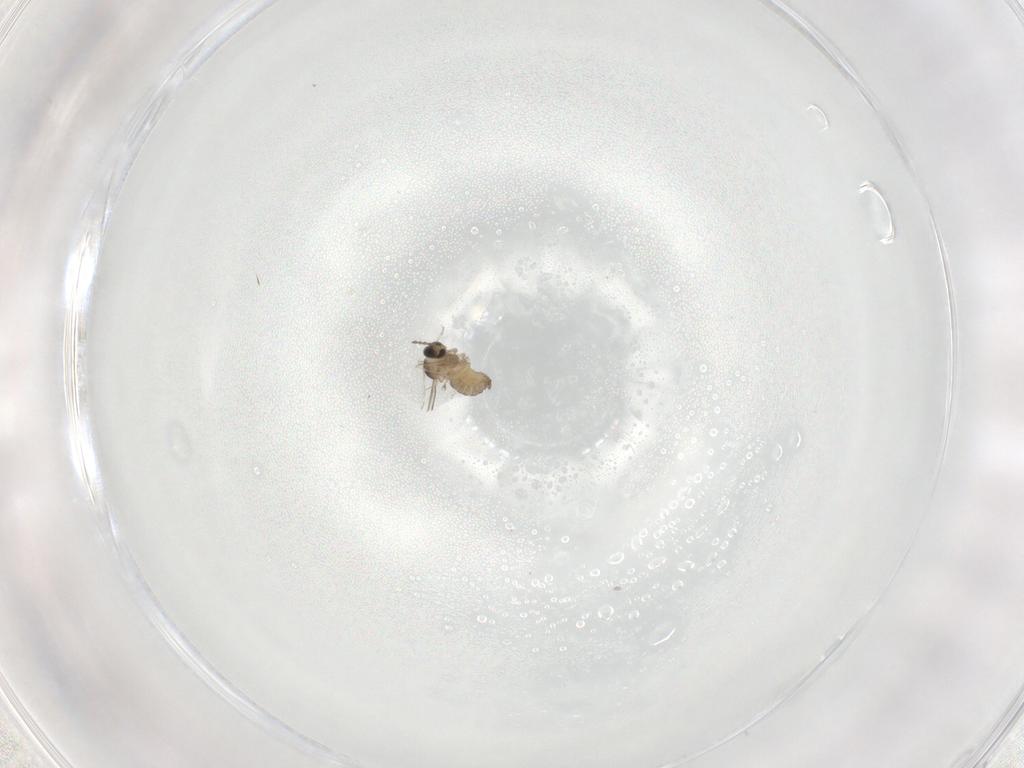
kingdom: Animalia
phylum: Arthropoda
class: Insecta
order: Diptera
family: Cecidomyiidae
